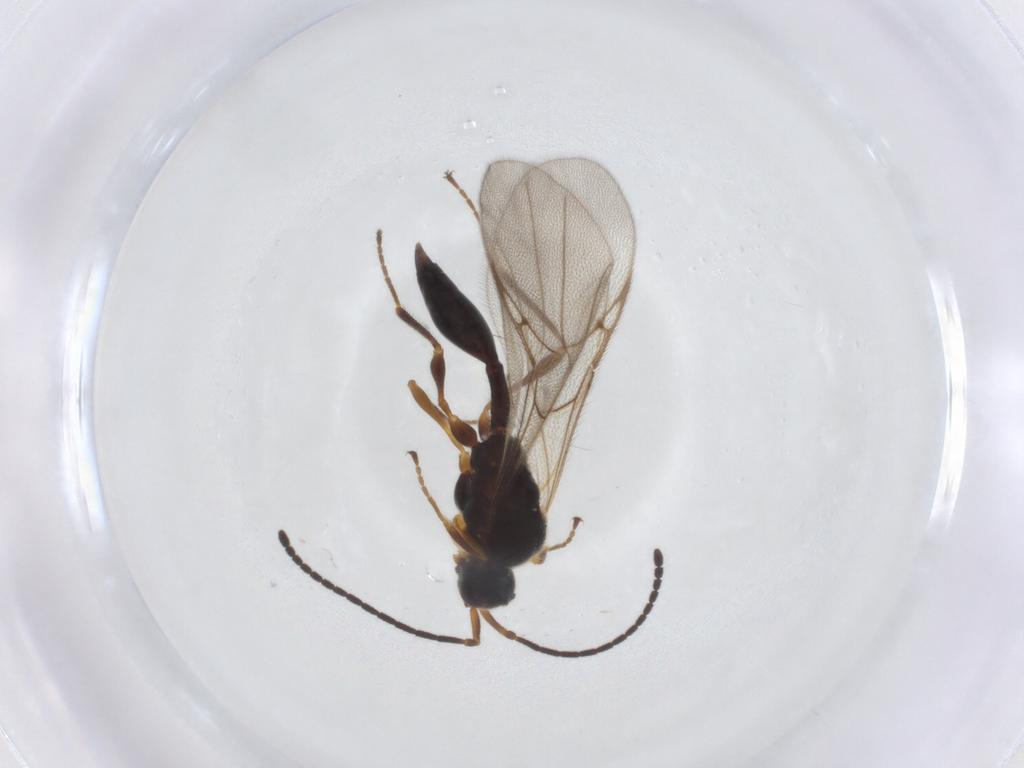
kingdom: Animalia
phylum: Arthropoda
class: Insecta
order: Hymenoptera
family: Diapriidae
